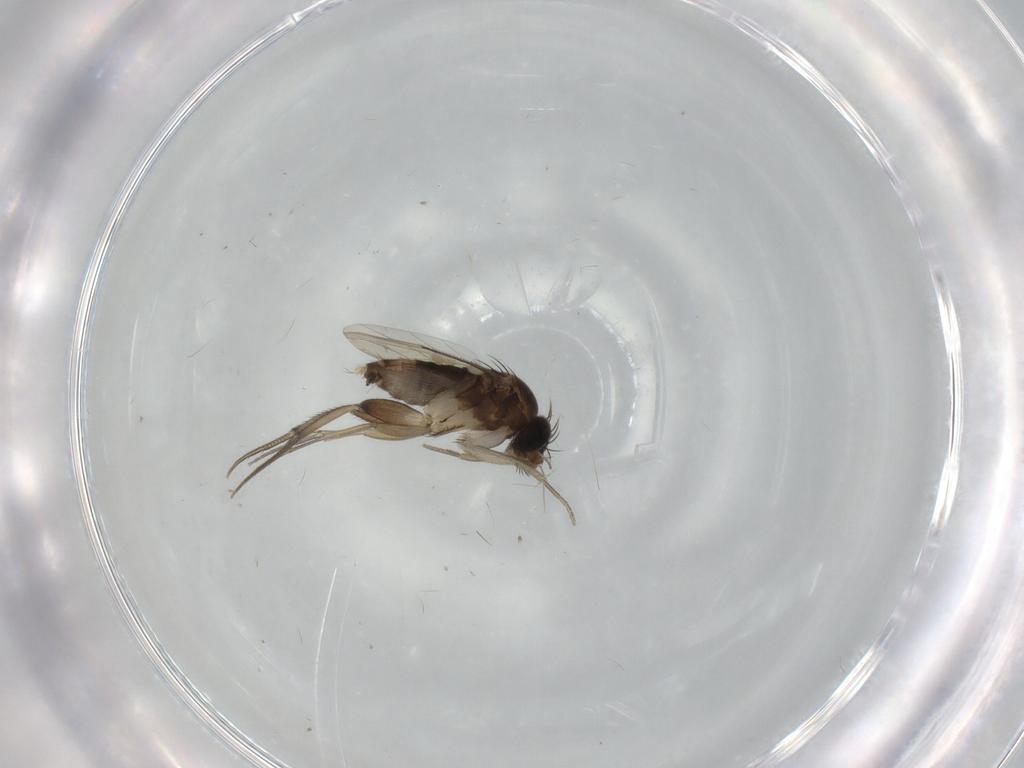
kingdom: Animalia
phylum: Arthropoda
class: Insecta
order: Diptera
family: Phoridae
